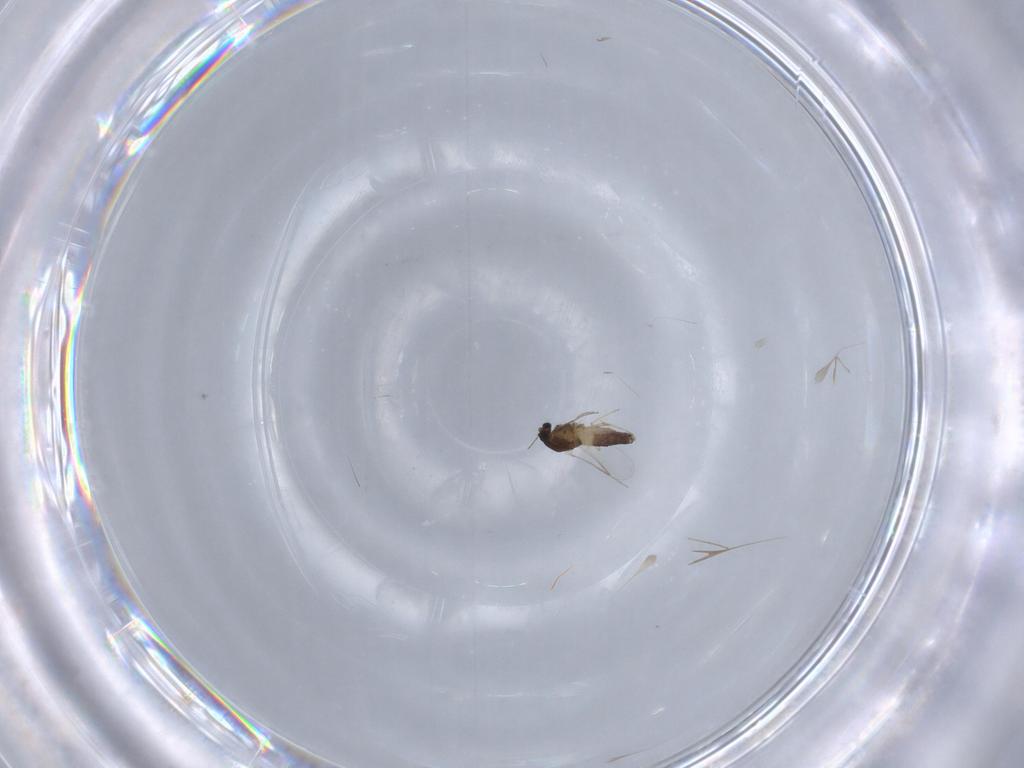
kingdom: Animalia
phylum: Arthropoda
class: Insecta
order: Diptera
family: Chironomidae
